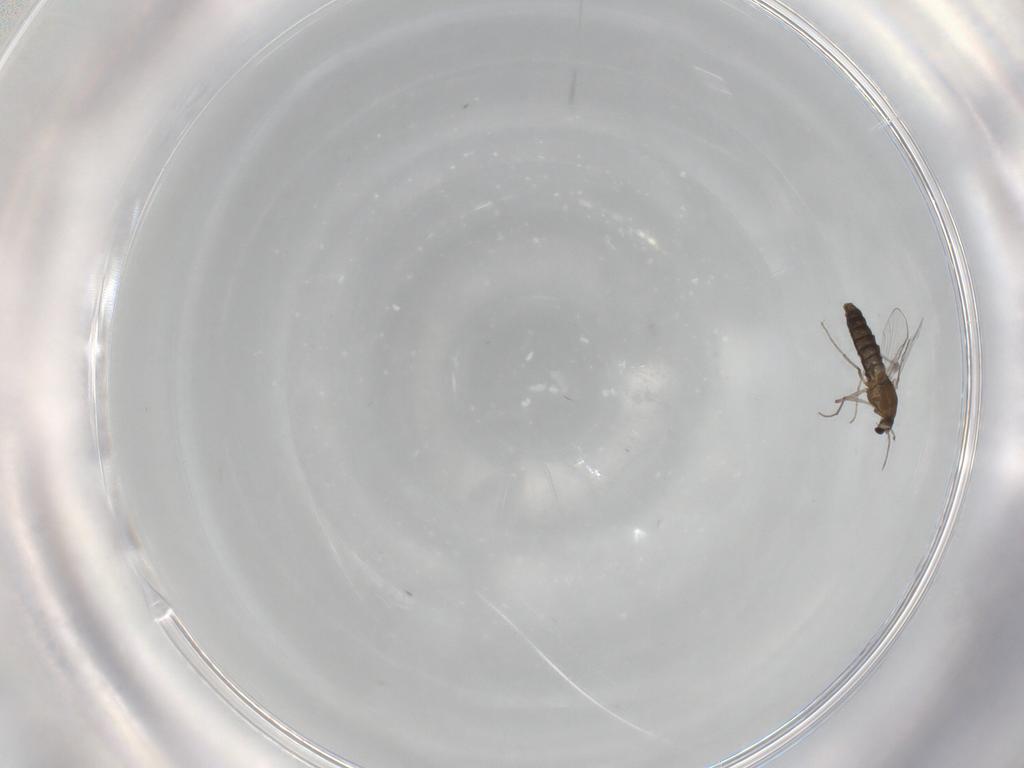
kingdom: Animalia
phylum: Arthropoda
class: Insecta
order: Diptera
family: Chironomidae
